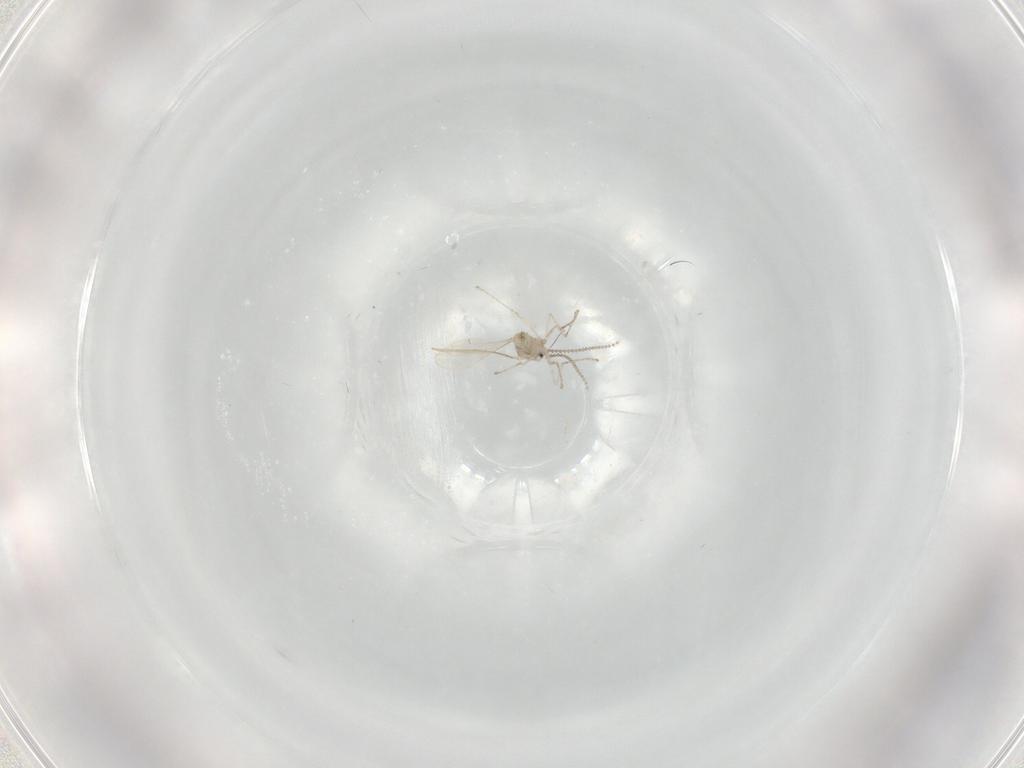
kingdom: Animalia
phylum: Arthropoda
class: Insecta
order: Diptera
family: Cecidomyiidae
